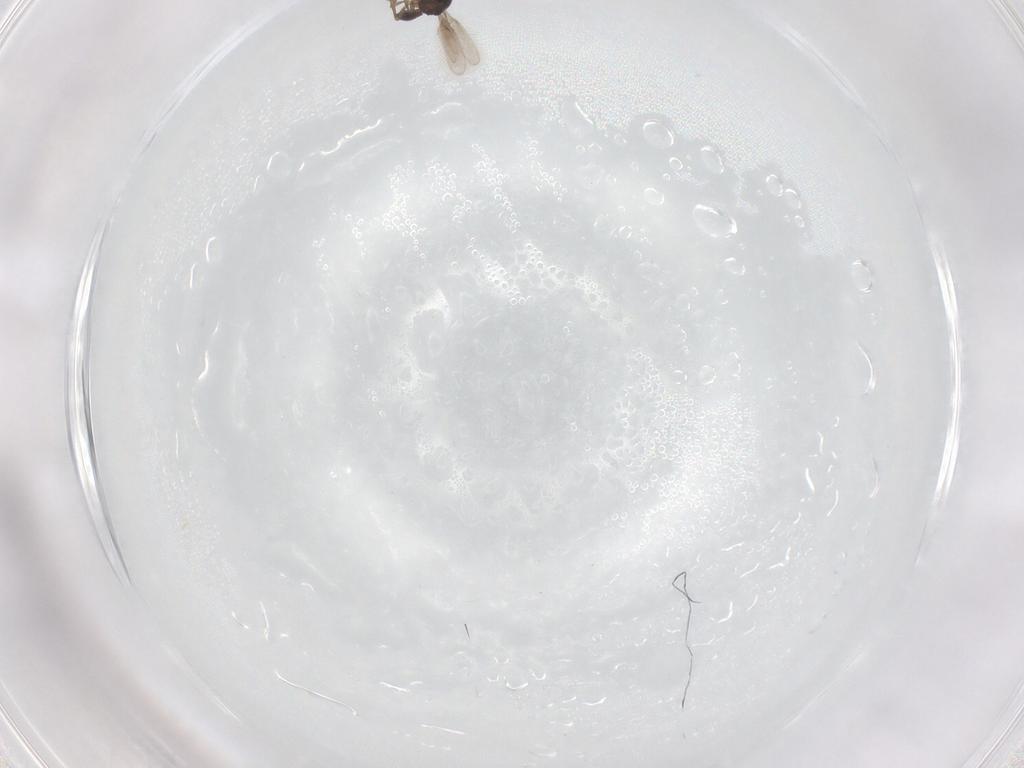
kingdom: Animalia
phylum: Arthropoda
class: Insecta
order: Hymenoptera
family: Scelionidae
